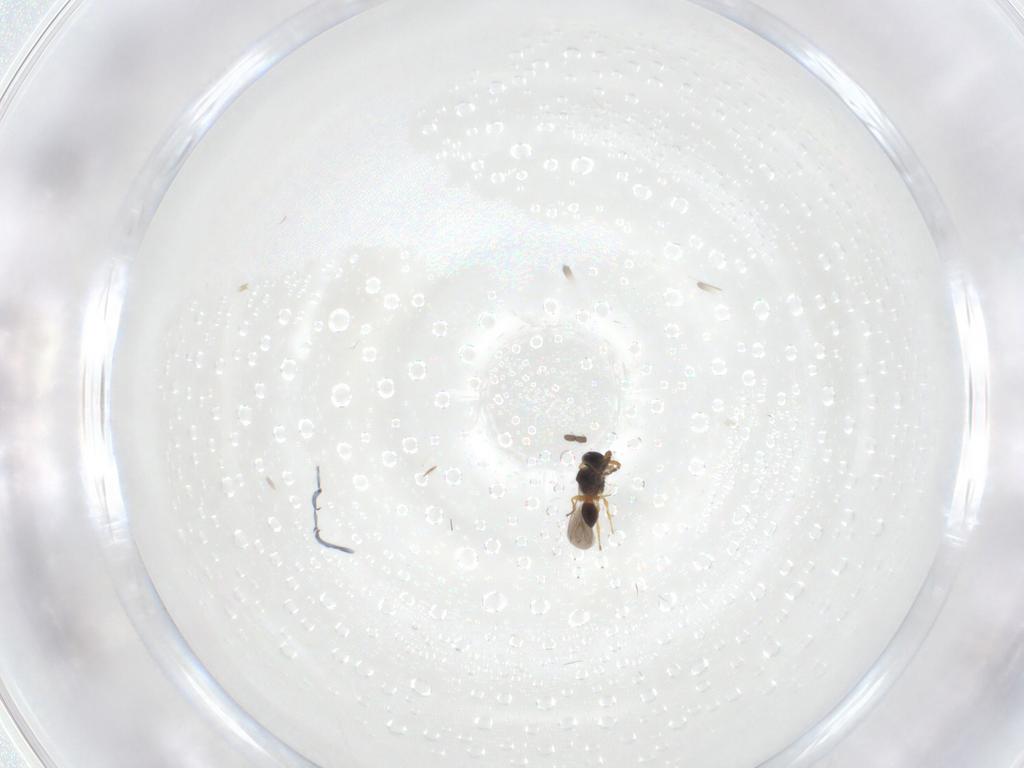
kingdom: Animalia
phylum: Arthropoda
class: Insecta
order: Hymenoptera
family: Platygastridae
